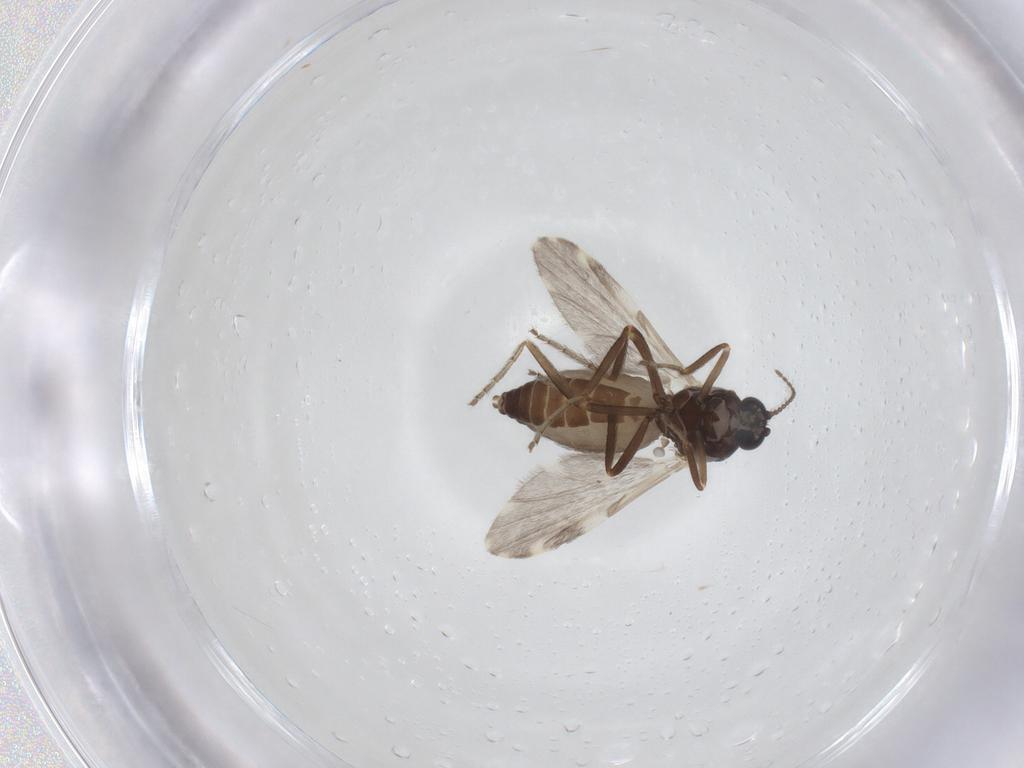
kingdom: Animalia
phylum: Arthropoda
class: Insecta
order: Diptera
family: Ceratopogonidae
